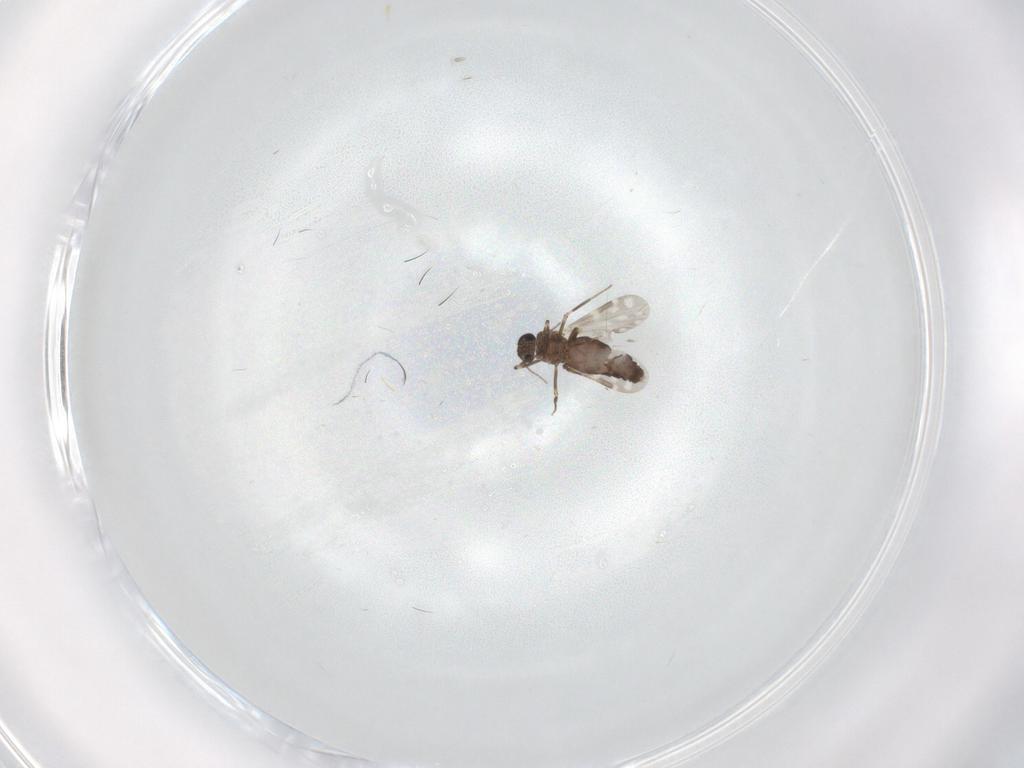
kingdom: Animalia
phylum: Arthropoda
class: Insecta
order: Diptera
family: Ceratopogonidae
